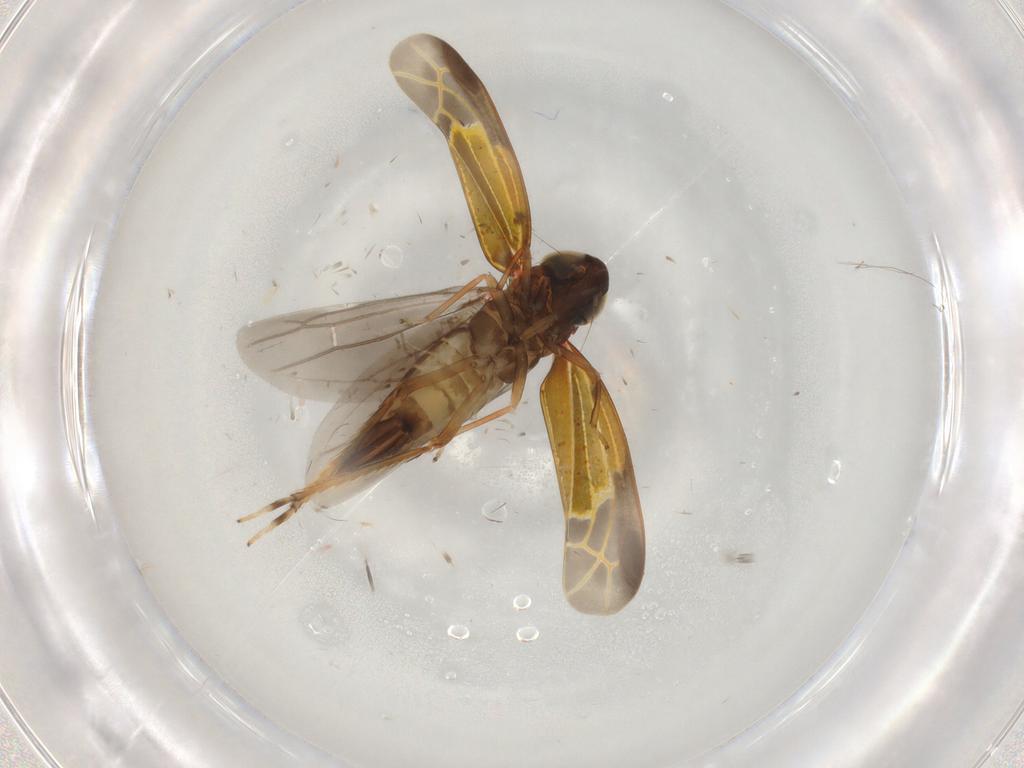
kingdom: Animalia
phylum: Arthropoda
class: Insecta
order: Hemiptera
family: Cicadellidae
